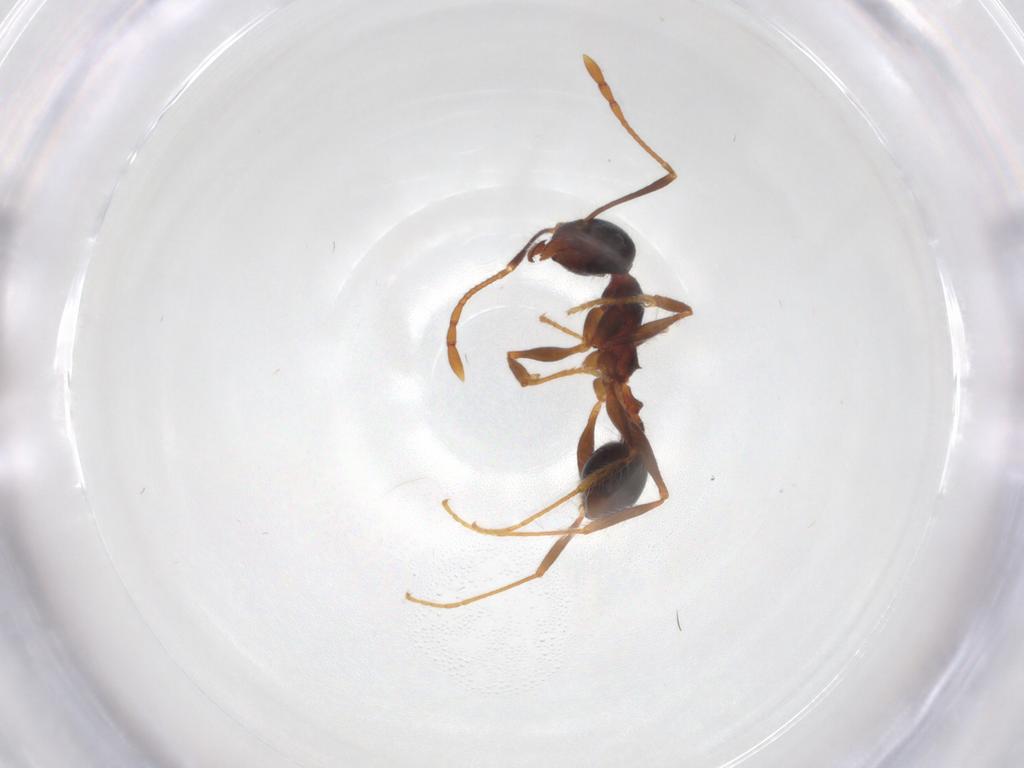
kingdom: Animalia
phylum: Arthropoda
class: Insecta
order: Hymenoptera
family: Formicidae
